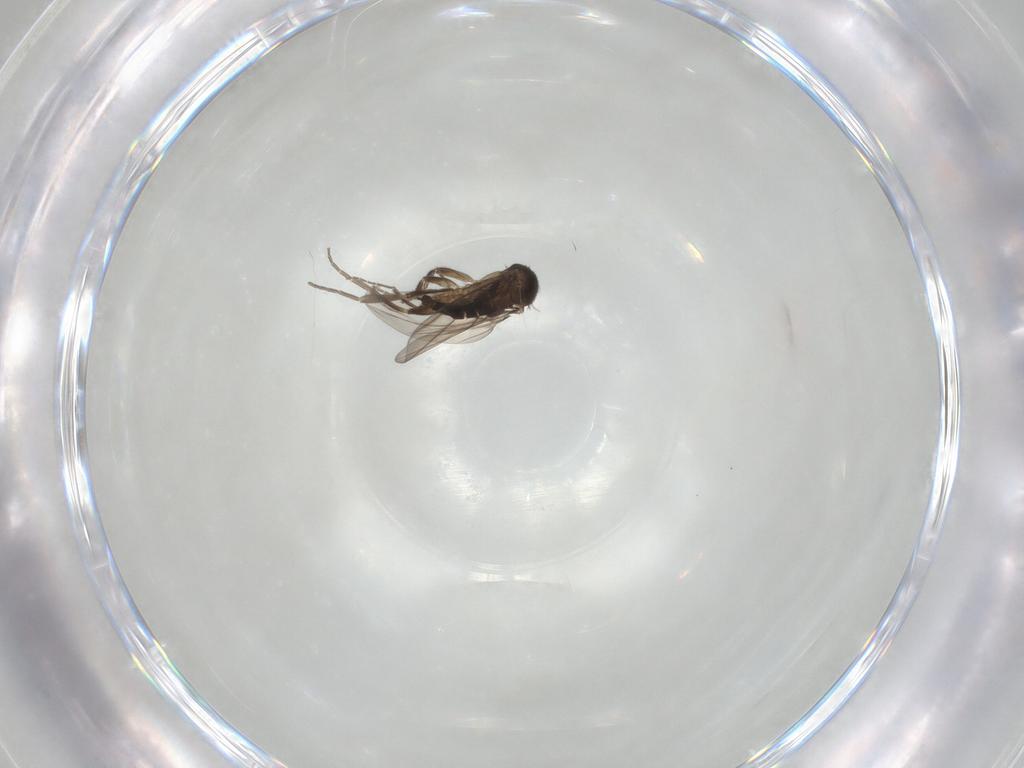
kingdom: Animalia
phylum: Arthropoda
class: Insecta
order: Diptera
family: Phoridae
